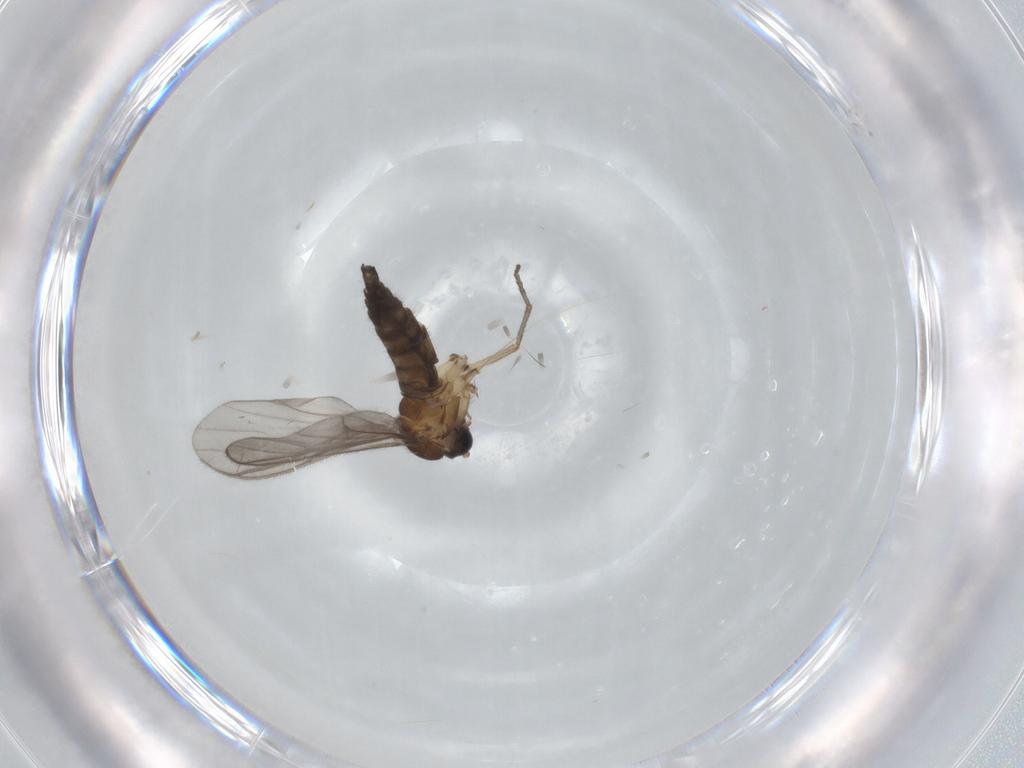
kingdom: Animalia
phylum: Arthropoda
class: Insecta
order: Diptera
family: Sciaridae
